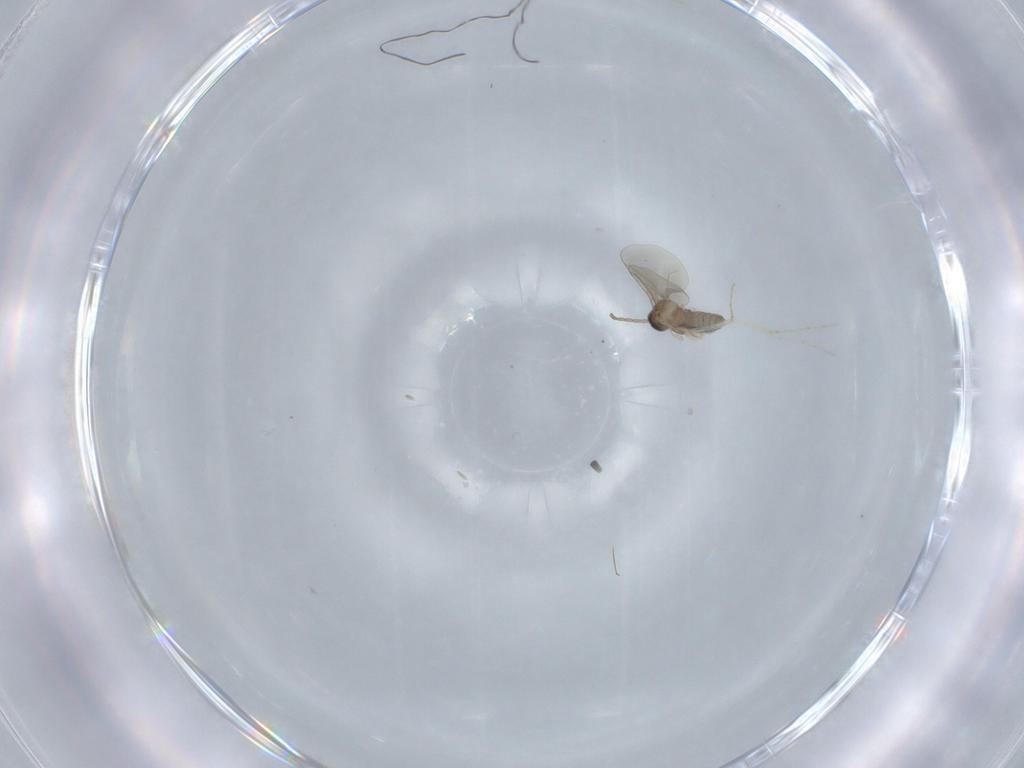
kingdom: Animalia
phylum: Arthropoda
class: Insecta
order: Diptera
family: Cecidomyiidae
